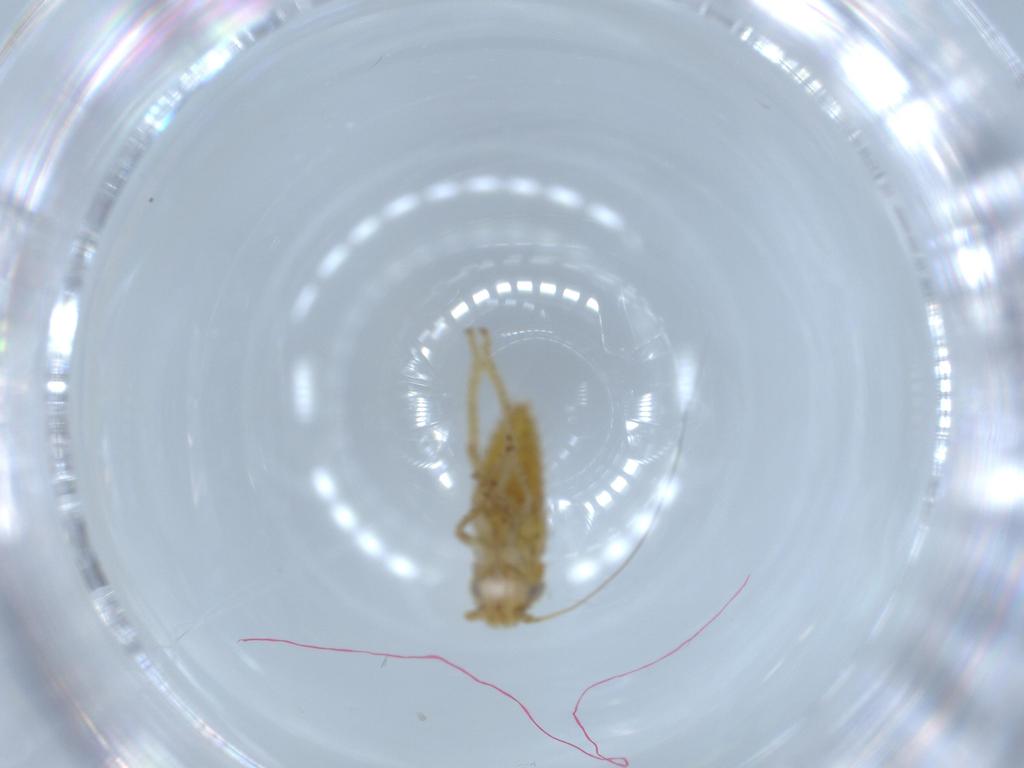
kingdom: Animalia
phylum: Arthropoda
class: Insecta
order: Hemiptera
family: Cicadellidae
